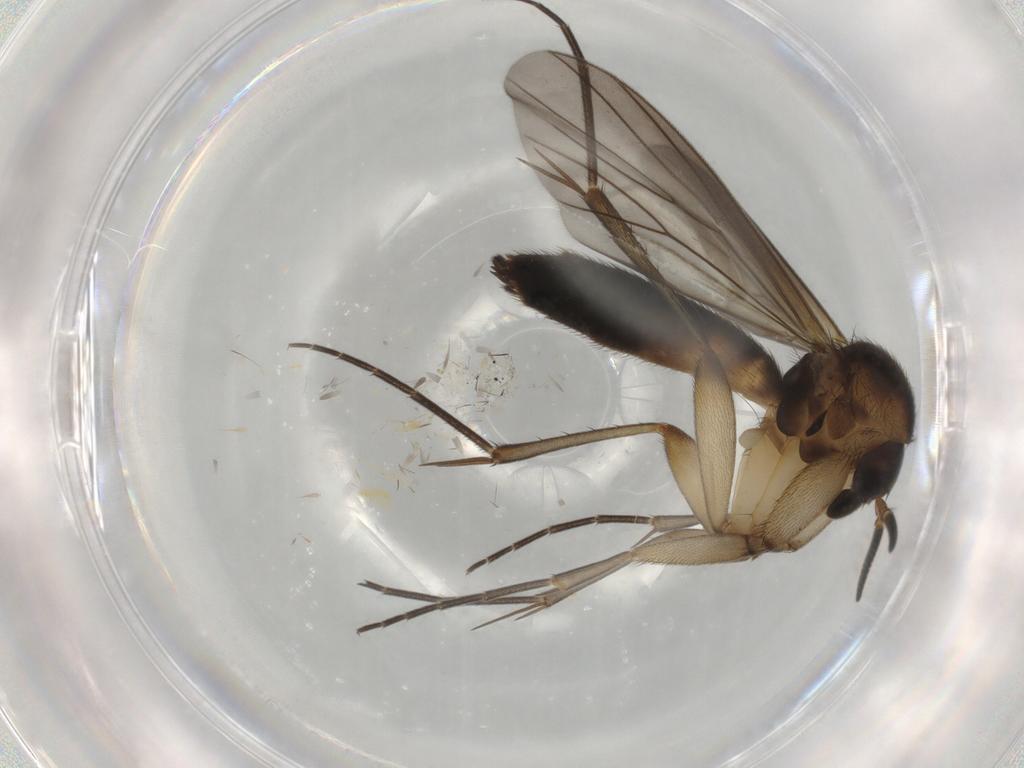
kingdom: Animalia
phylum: Arthropoda
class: Insecta
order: Diptera
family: Mycetophilidae
